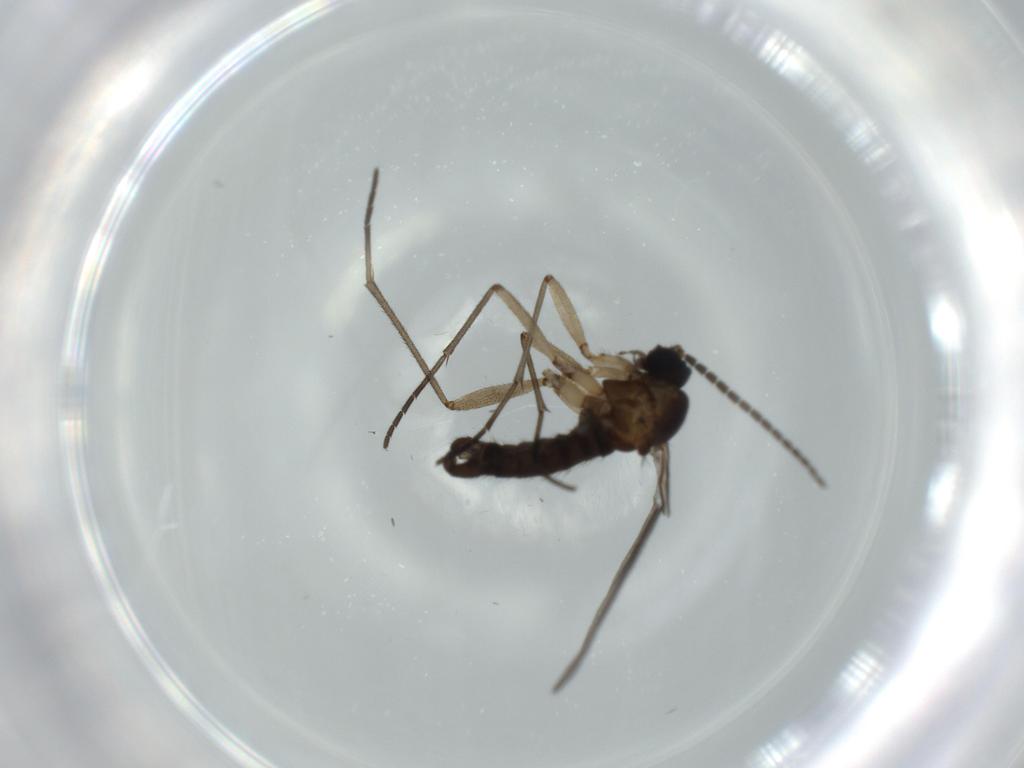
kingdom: Animalia
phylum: Arthropoda
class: Insecta
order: Diptera
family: Sciaridae
